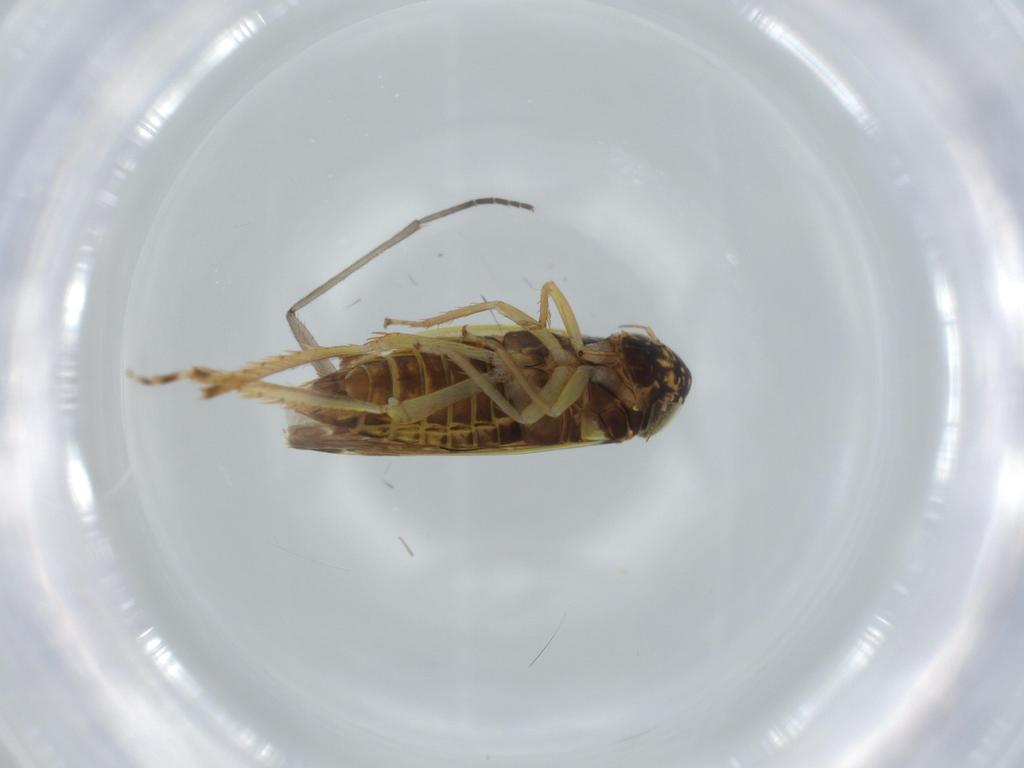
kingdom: Animalia
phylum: Arthropoda
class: Insecta
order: Hemiptera
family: Cicadellidae
